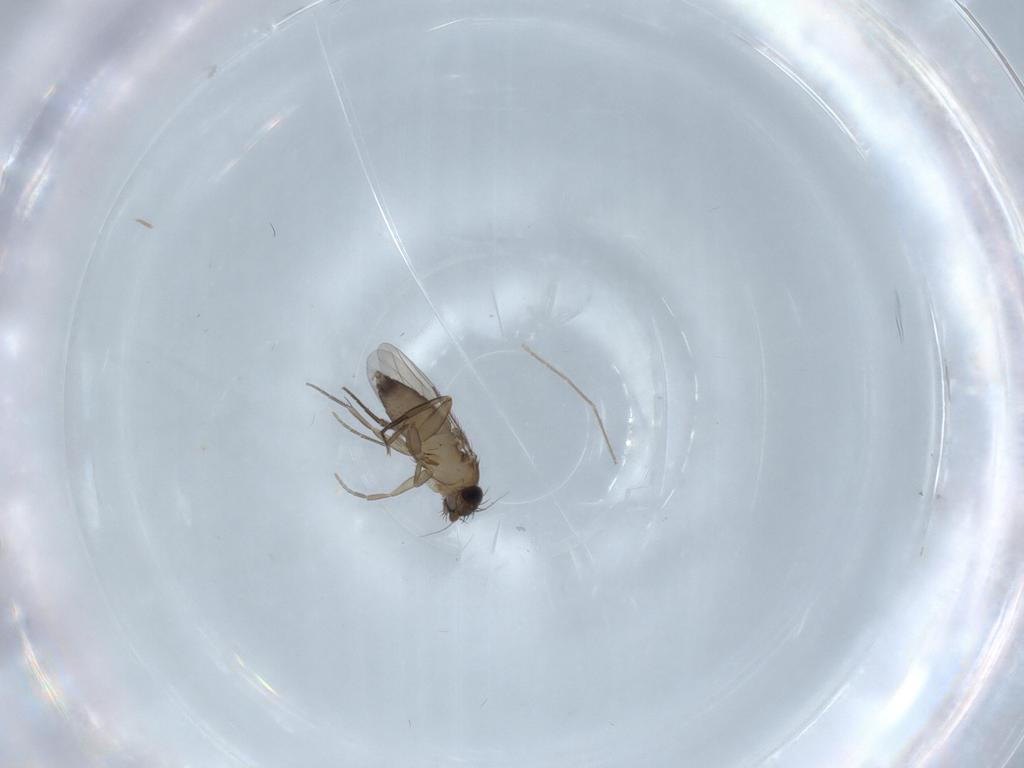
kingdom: Animalia
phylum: Arthropoda
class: Insecta
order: Diptera
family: Phoridae
